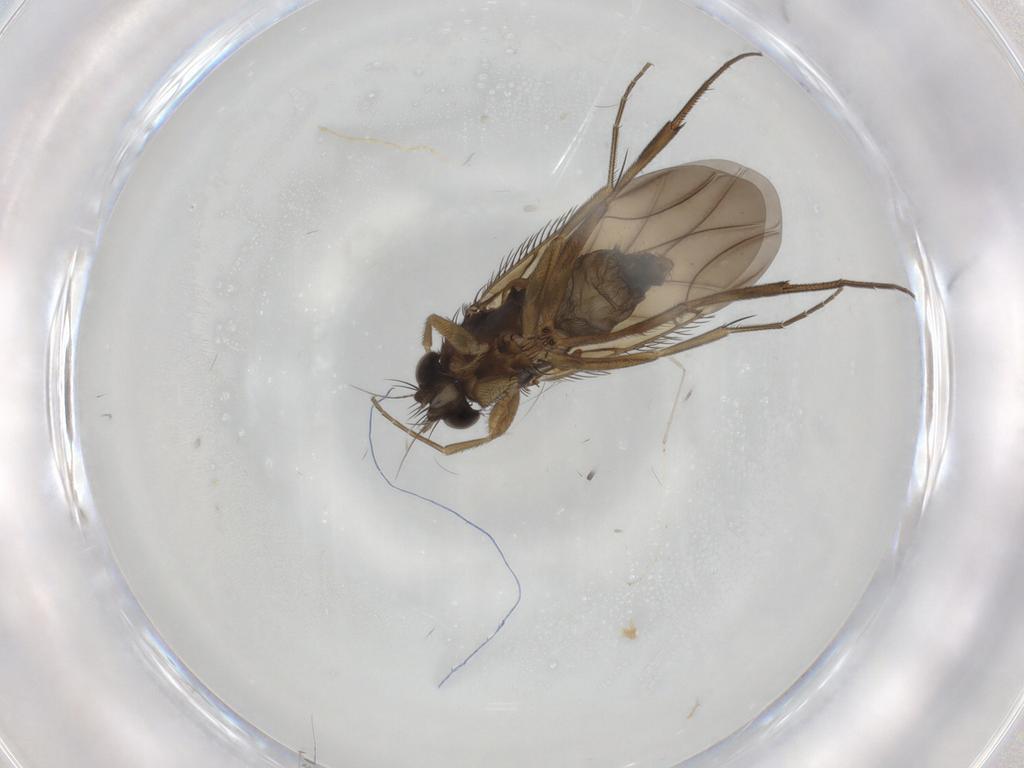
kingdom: Animalia
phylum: Arthropoda
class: Insecta
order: Diptera
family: Phoridae
